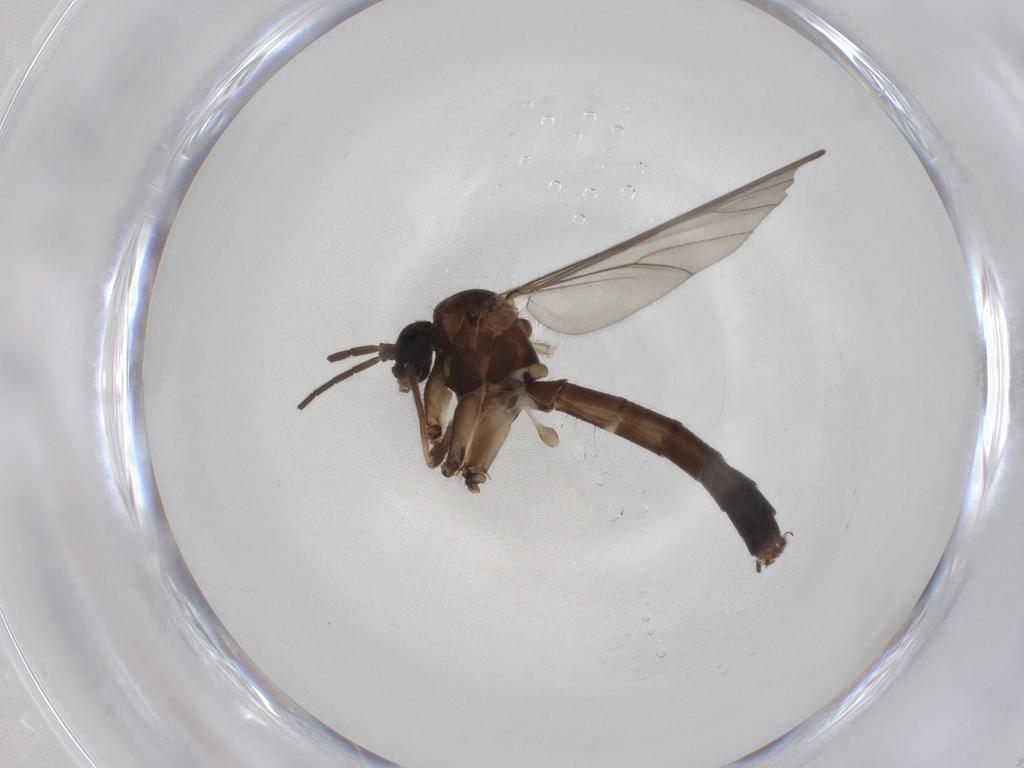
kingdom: Animalia
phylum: Arthropoda
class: Insecta
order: Diptera
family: Mycetophilidae
